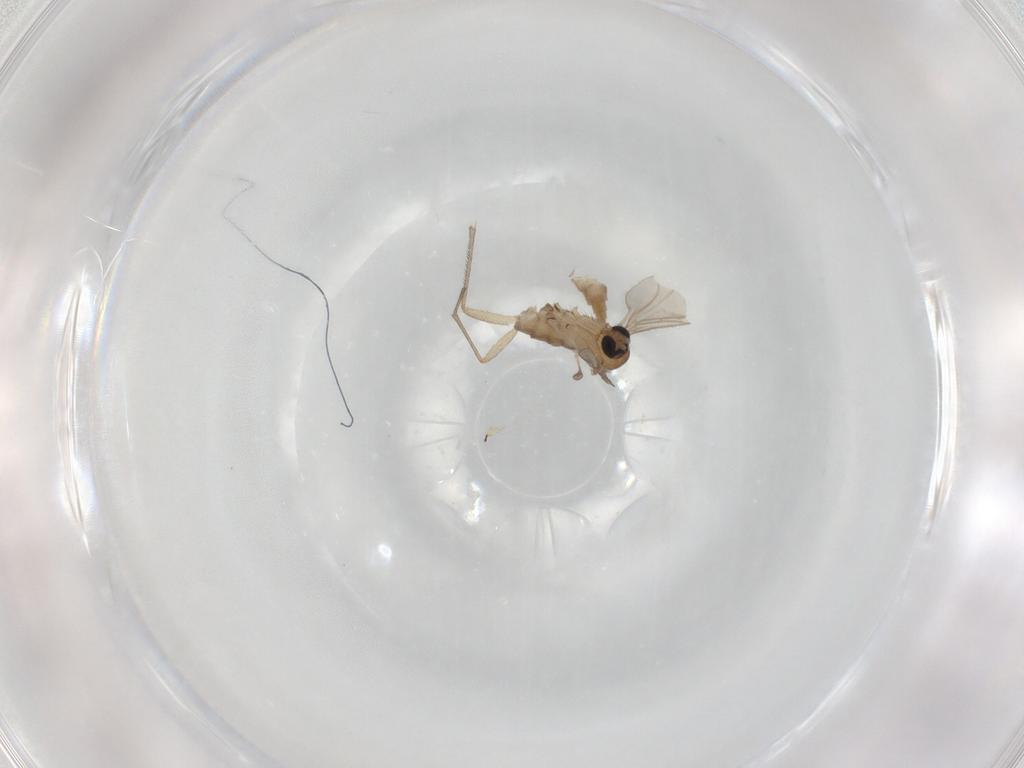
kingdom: Animalia
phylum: Arthropoda
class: Insecta
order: Diptera
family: Sciaridae
